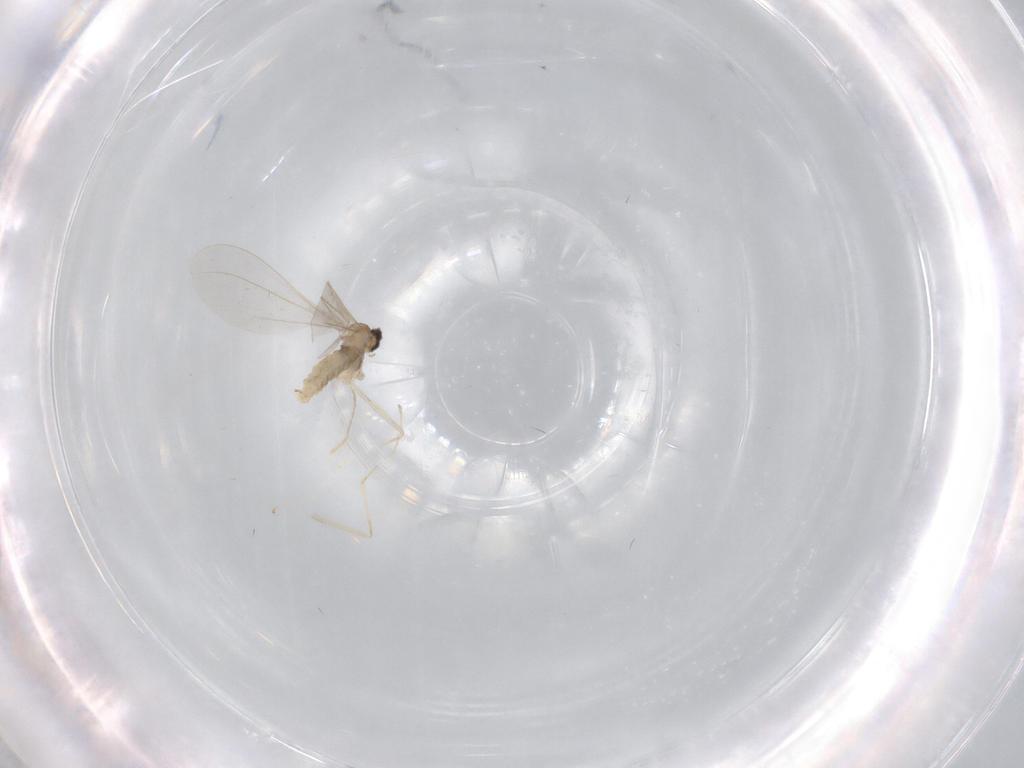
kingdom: Animalia
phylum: Arthropoda
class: Insecta
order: Diptera
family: Cecidomyiidae
